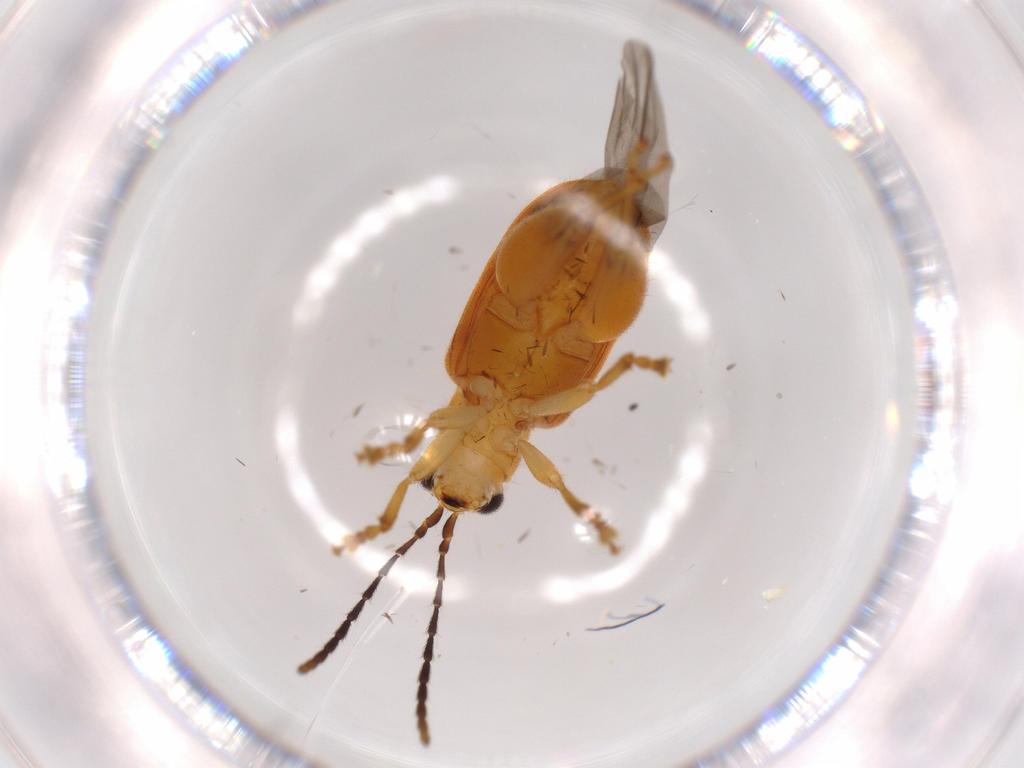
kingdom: Animalia
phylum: Arthropoda
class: Insecta
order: Coleoptera
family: Chrysomelidae
